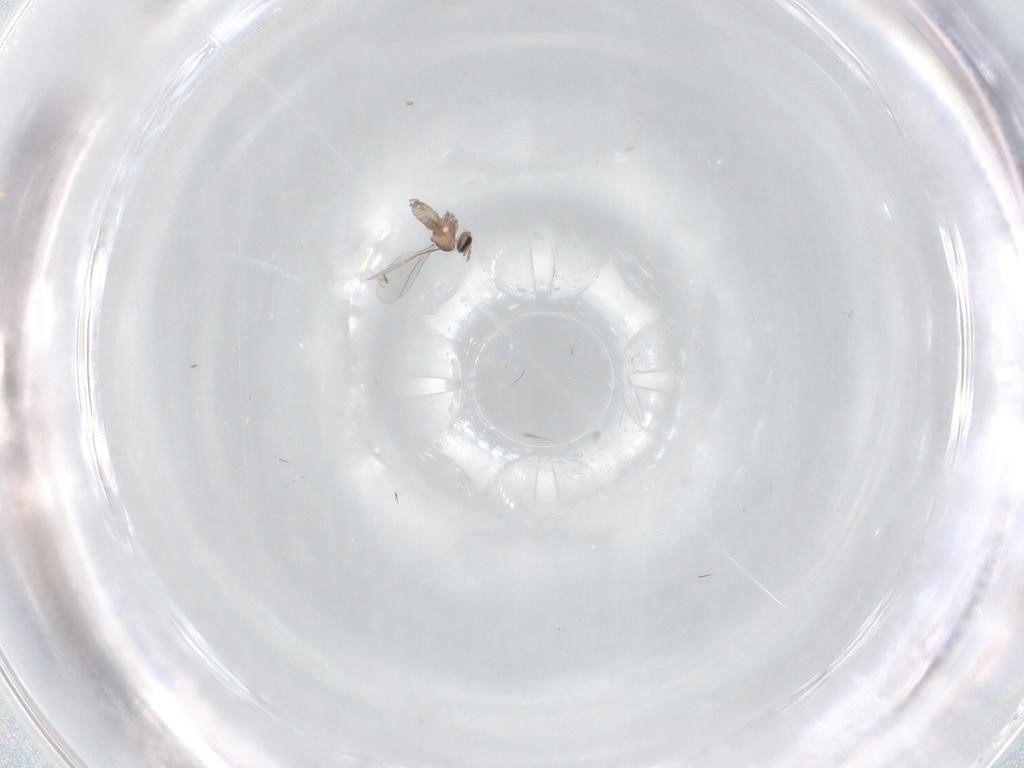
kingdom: Animalia
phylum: Arthropoda
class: Insecta
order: Diptera
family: Cecidomyiidae
